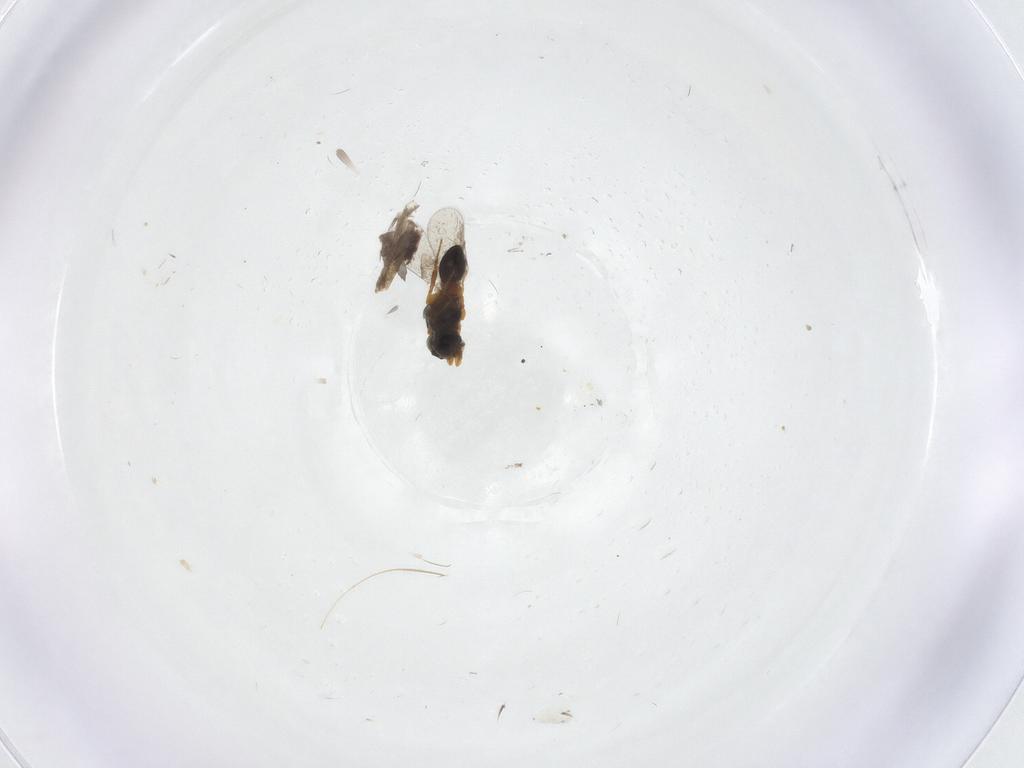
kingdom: Animalia
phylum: Arthropoda
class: Insecta
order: Hymenoptera
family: Platygastridae
